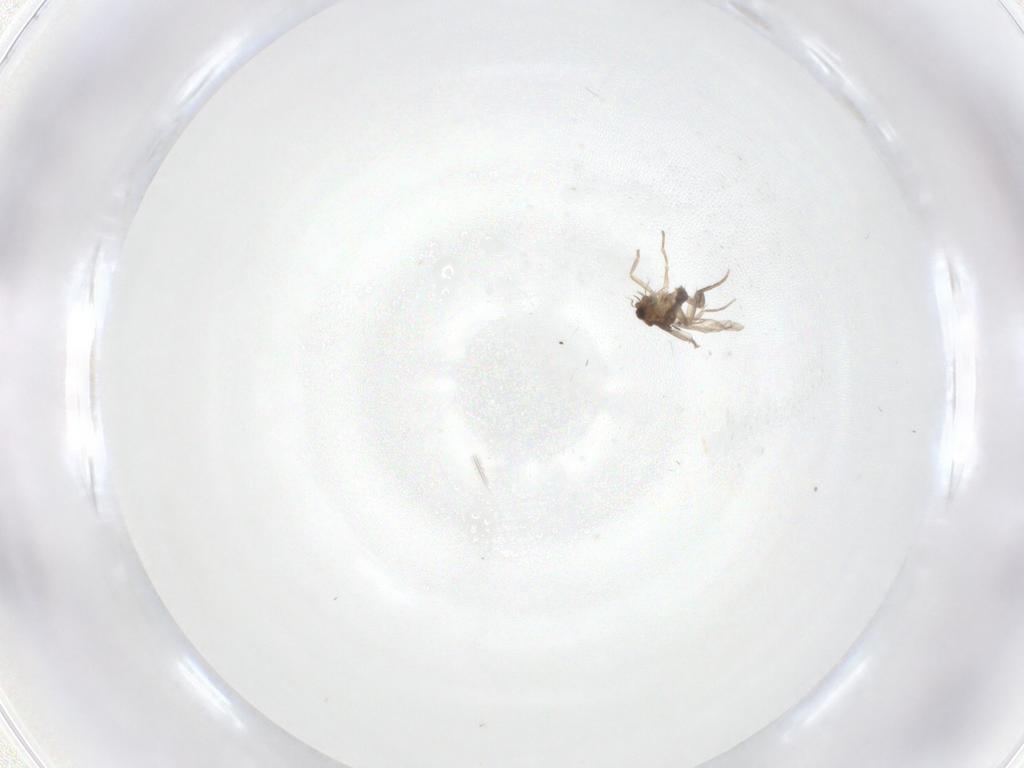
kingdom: Animalia
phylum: Arthropoda
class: Insecta
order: Diptera
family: Phoridae
